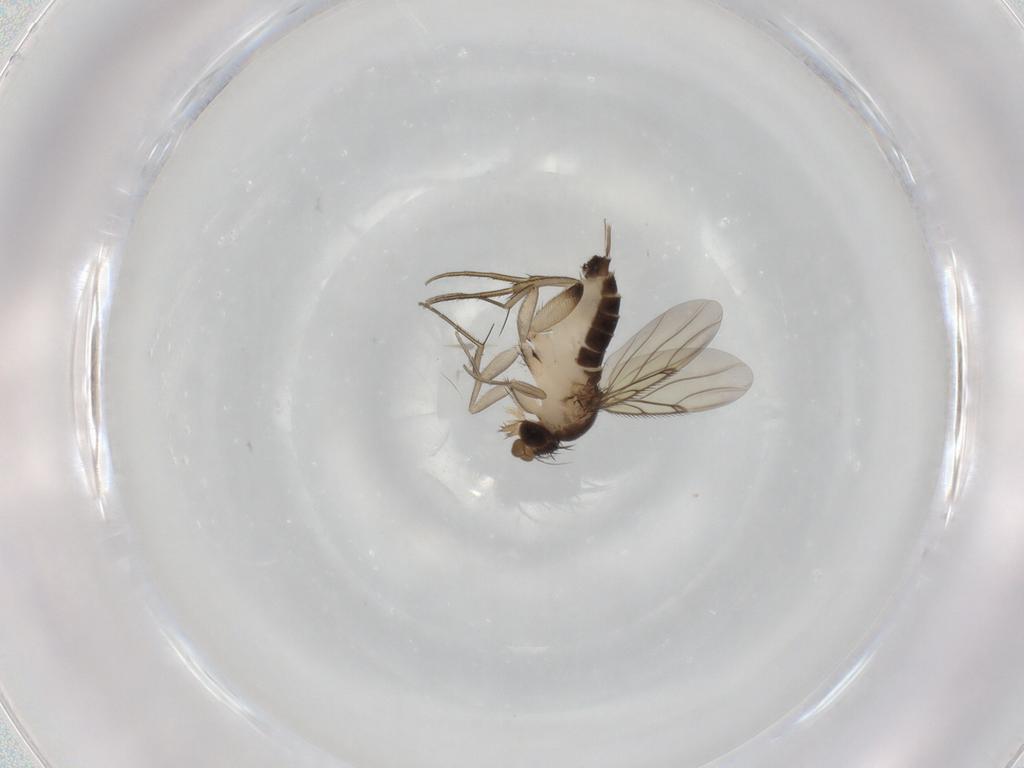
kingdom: Animalia
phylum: Arthropoda
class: Insecta
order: Diptera
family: Phoridae
